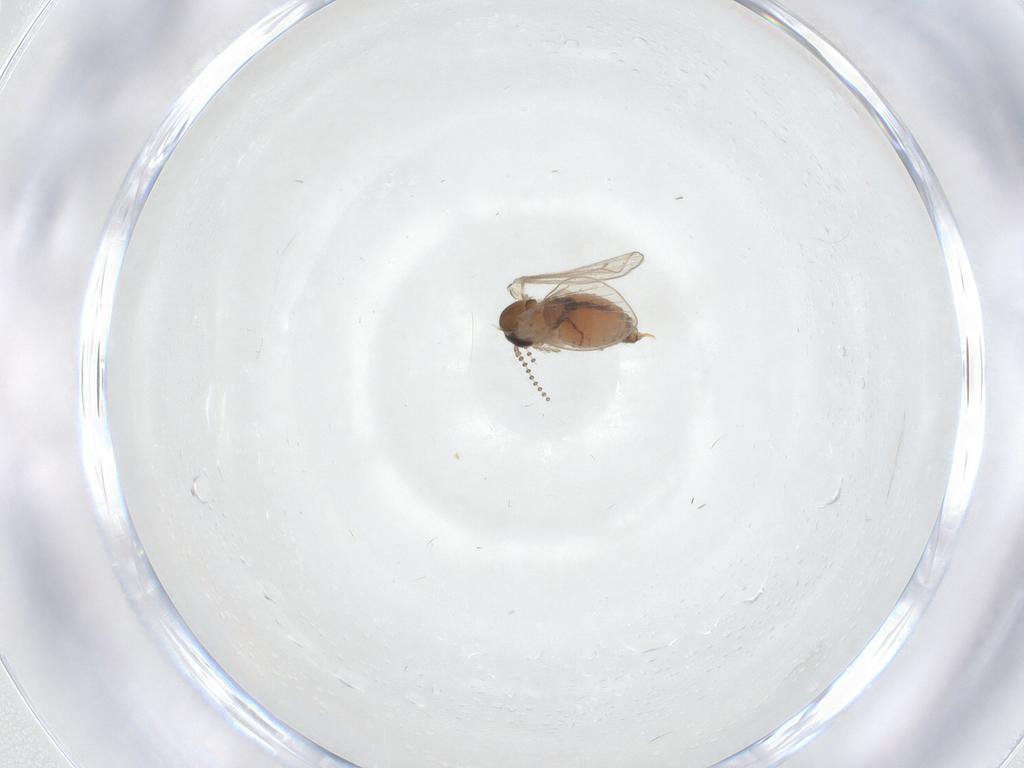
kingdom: Animalia
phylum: Arthropoda
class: Insecta
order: Diptera
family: Psychodidae
